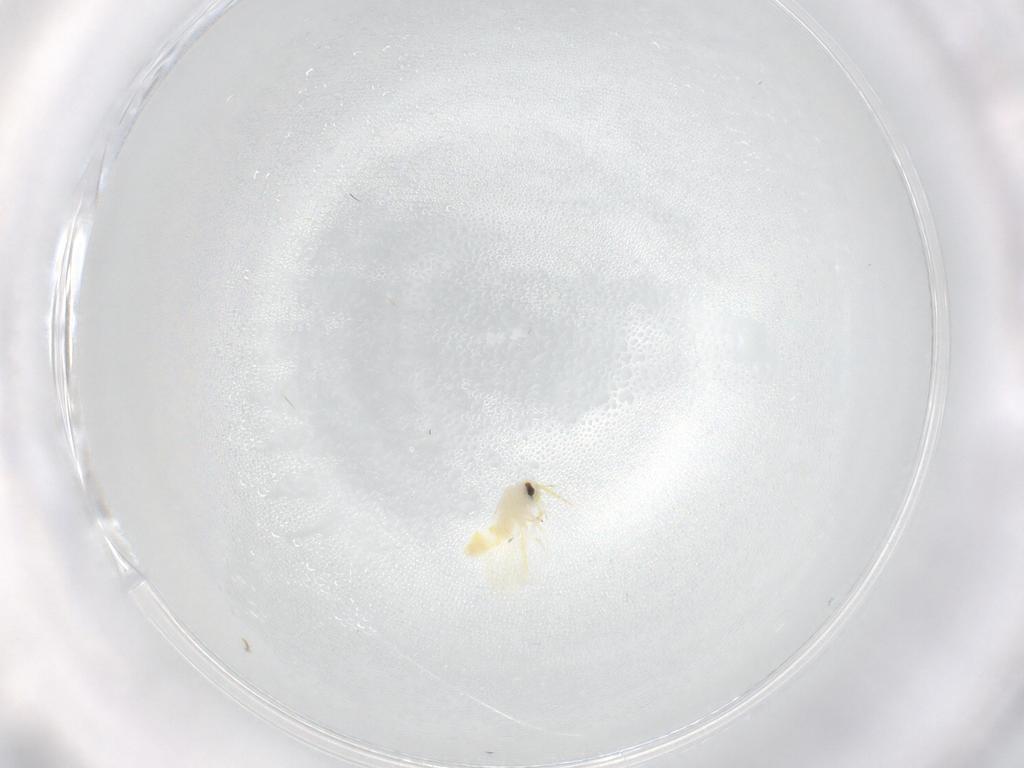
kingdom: Animalia
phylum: Arthropoda
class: Insecta
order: Hemiptera
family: Aleyrodidae
